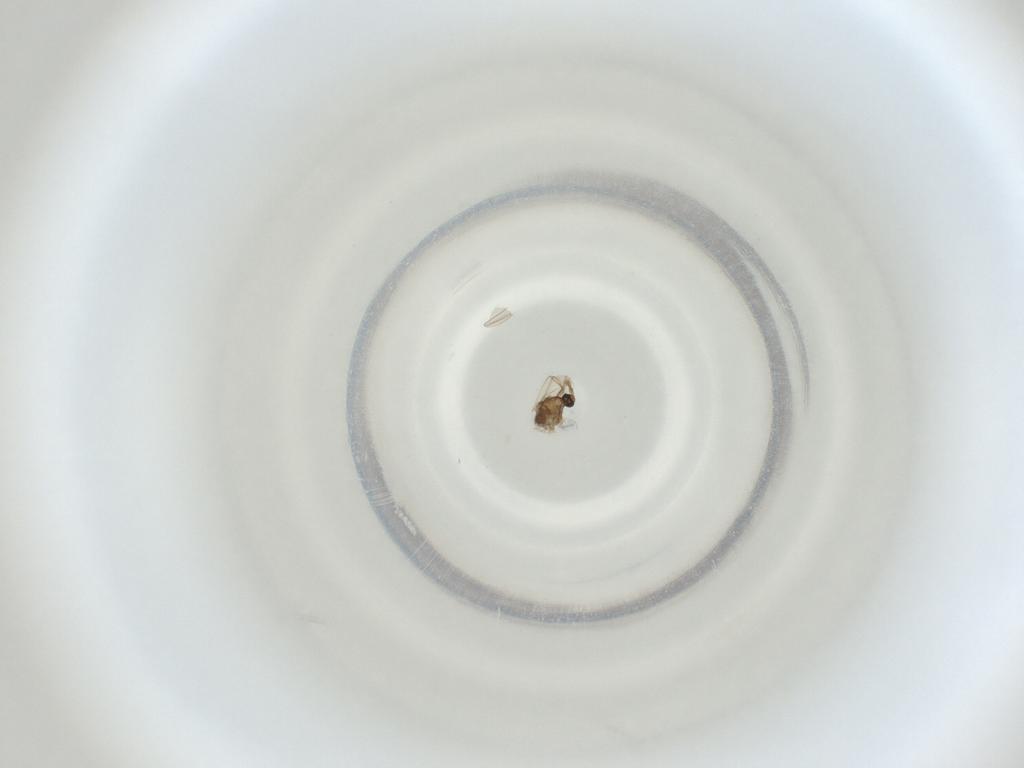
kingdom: Animalia
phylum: Arthropoda
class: Insecta
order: Diptera
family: Cecidomyiidae
